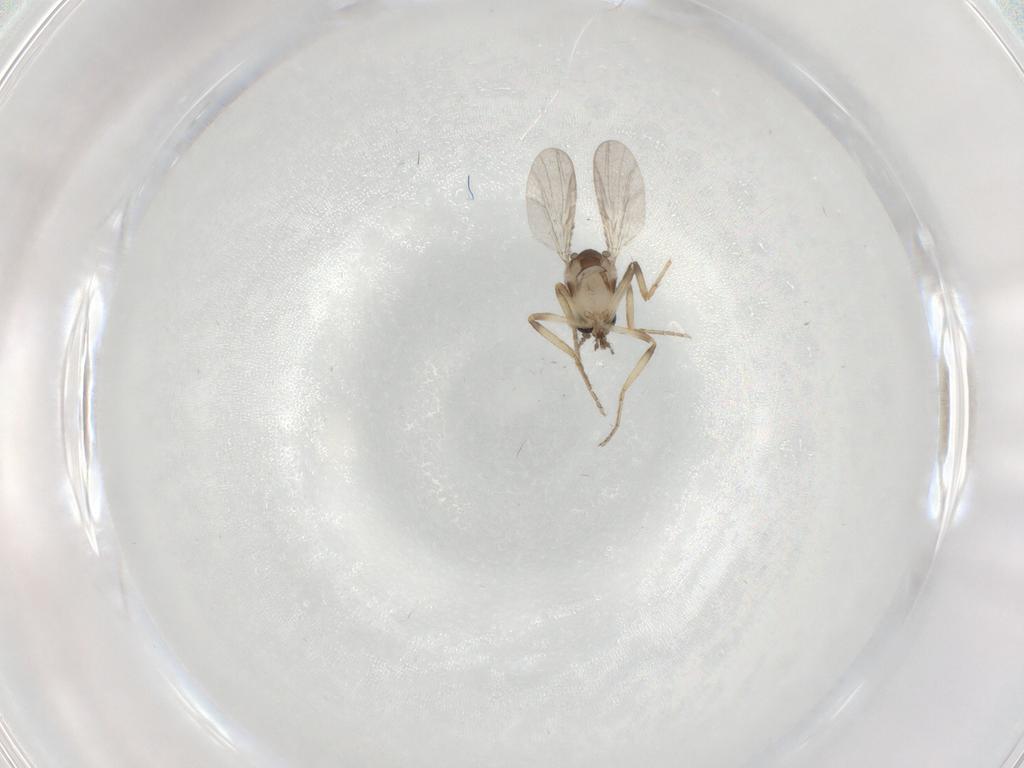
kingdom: Animalia
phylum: Arthropoda
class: Insecta
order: Diptera
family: Ceratopogonidae
